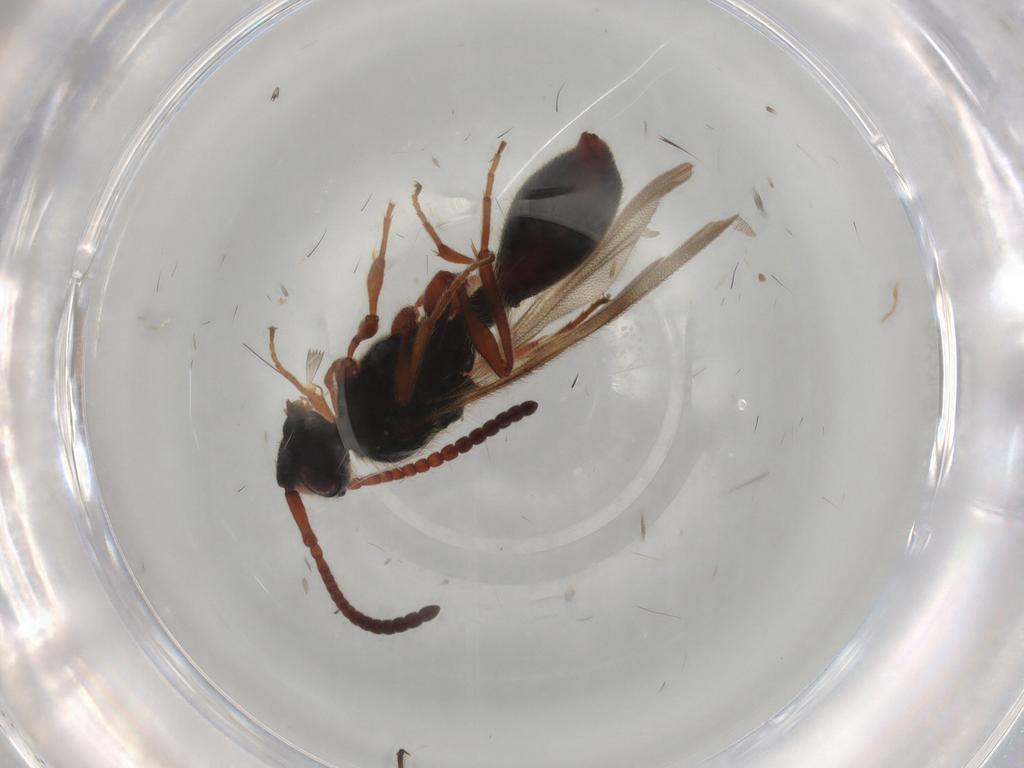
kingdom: Animalia
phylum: Arthropoda
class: Insecta
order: Hymenoptera
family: Diapriidae
